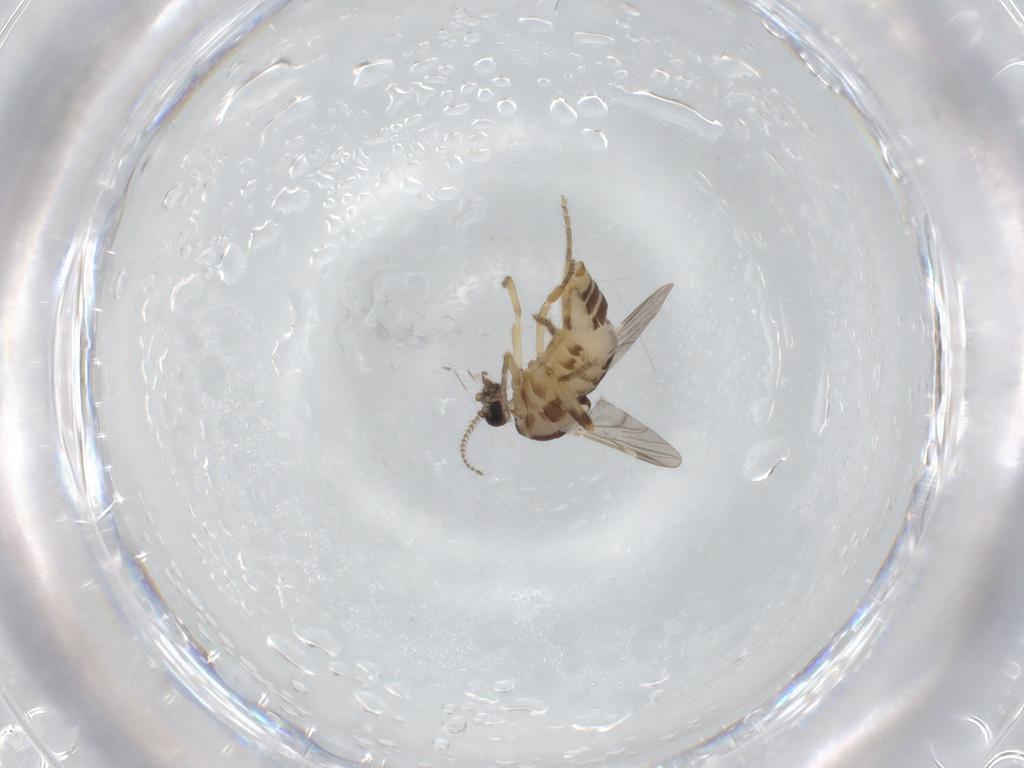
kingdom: Animalia
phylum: Arthropoda
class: Insecta
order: Diptera
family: Ceratopogonidae
